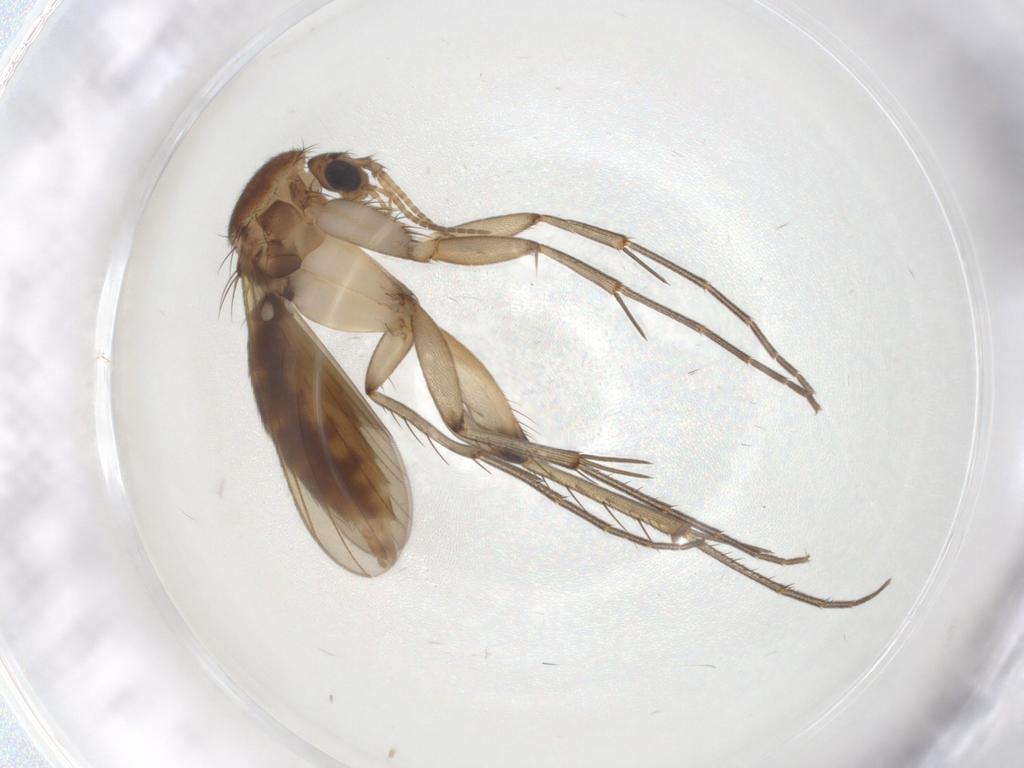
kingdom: Animalia
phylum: Arthropoda
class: Insecta
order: Diptera
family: Mycetophilidae
